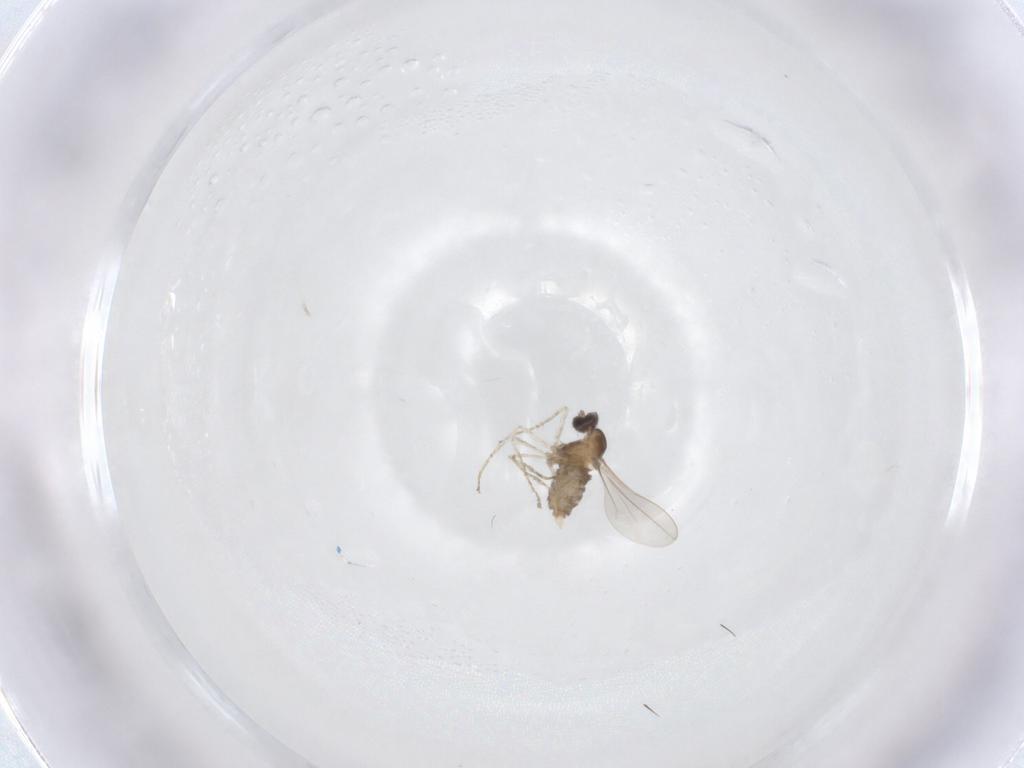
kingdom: Animalia
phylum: Arthropoda
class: Insecta
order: Diptera
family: Cecidomyiidae
